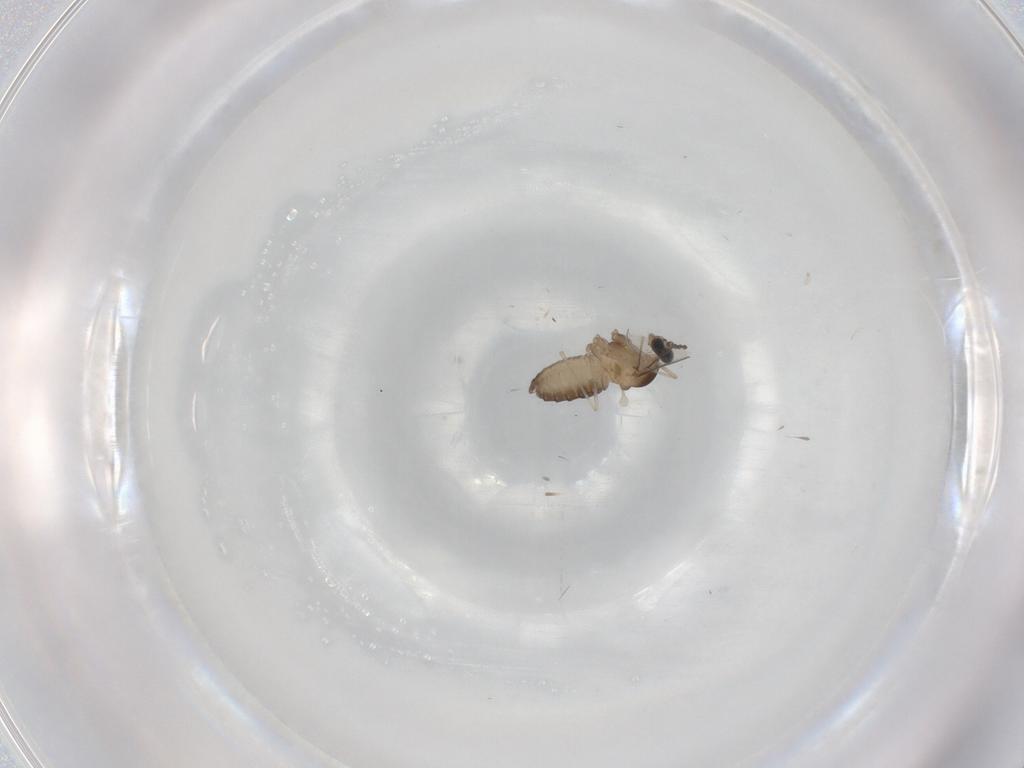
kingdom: Animalia
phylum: Arthropoda
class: Insecta
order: Diptera
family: Cecidomyiidae
